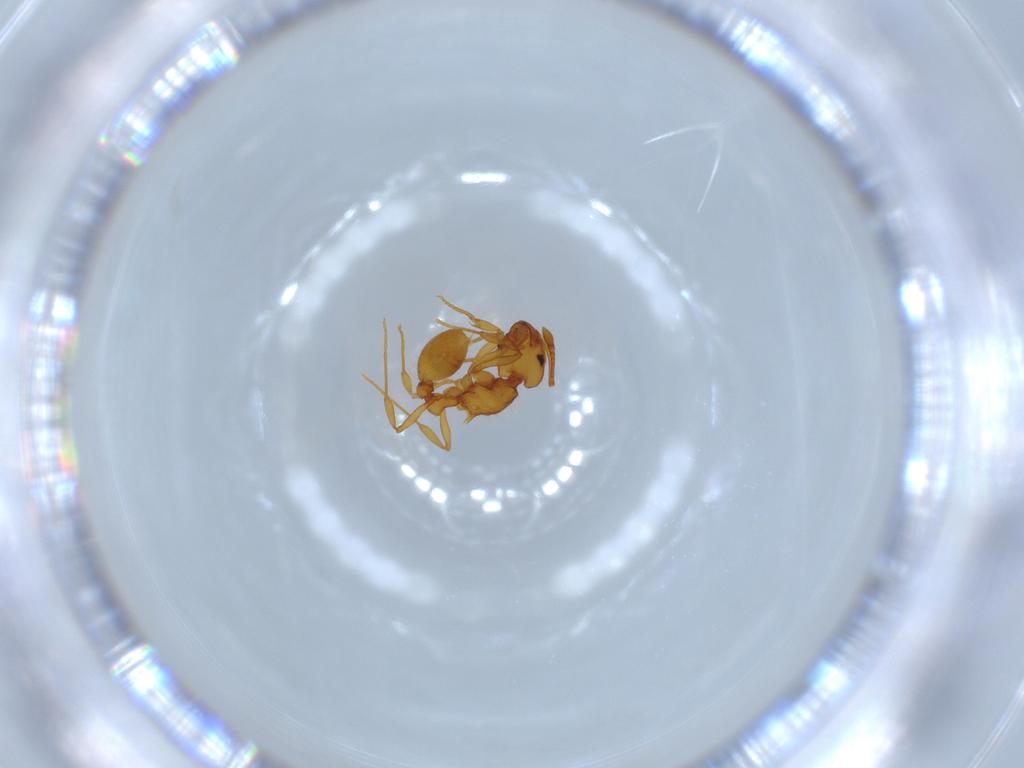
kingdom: Animalia
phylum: Arthropoda
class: Insecta
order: Hymenoptera
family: Formicidae
